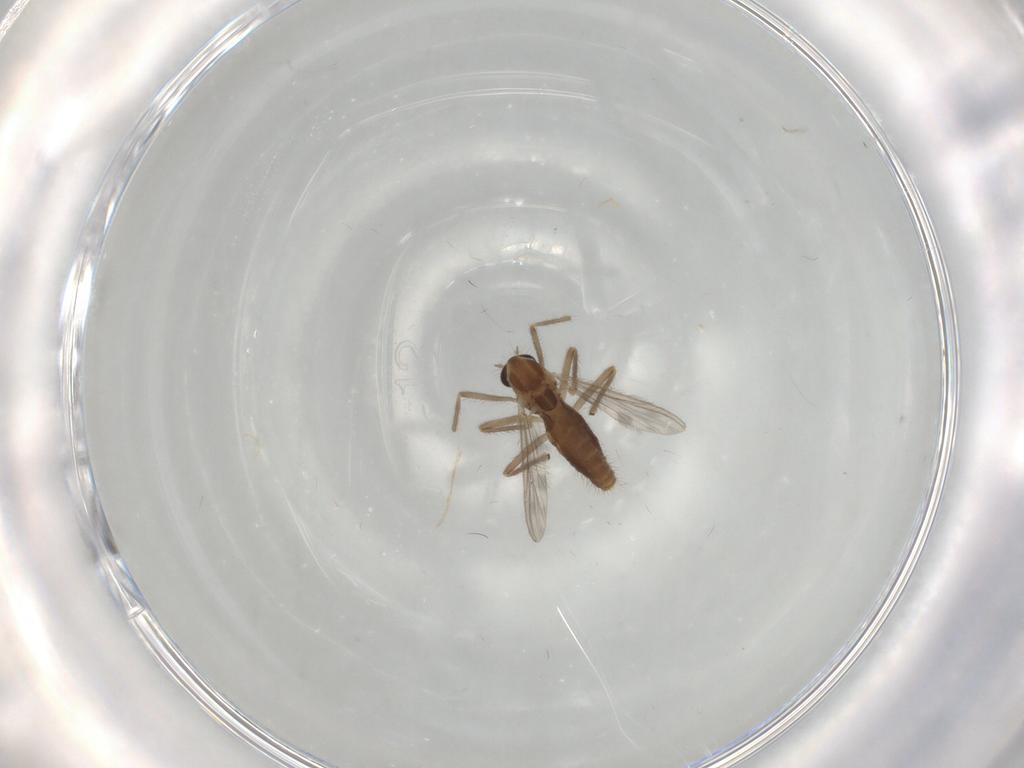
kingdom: Animalia
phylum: Arthropoda
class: Insecta
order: Diptera
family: Chironomidae
